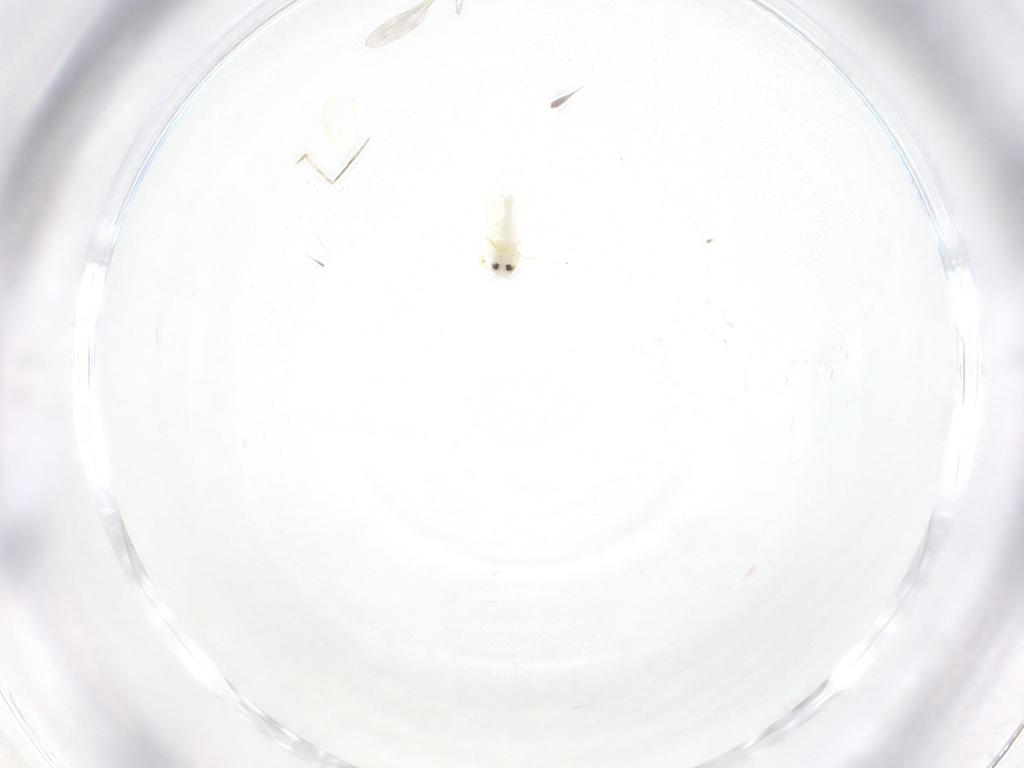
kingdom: Animalia
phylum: Arthropoda
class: Insecta
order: Diptera
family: Cecidomyiidae
